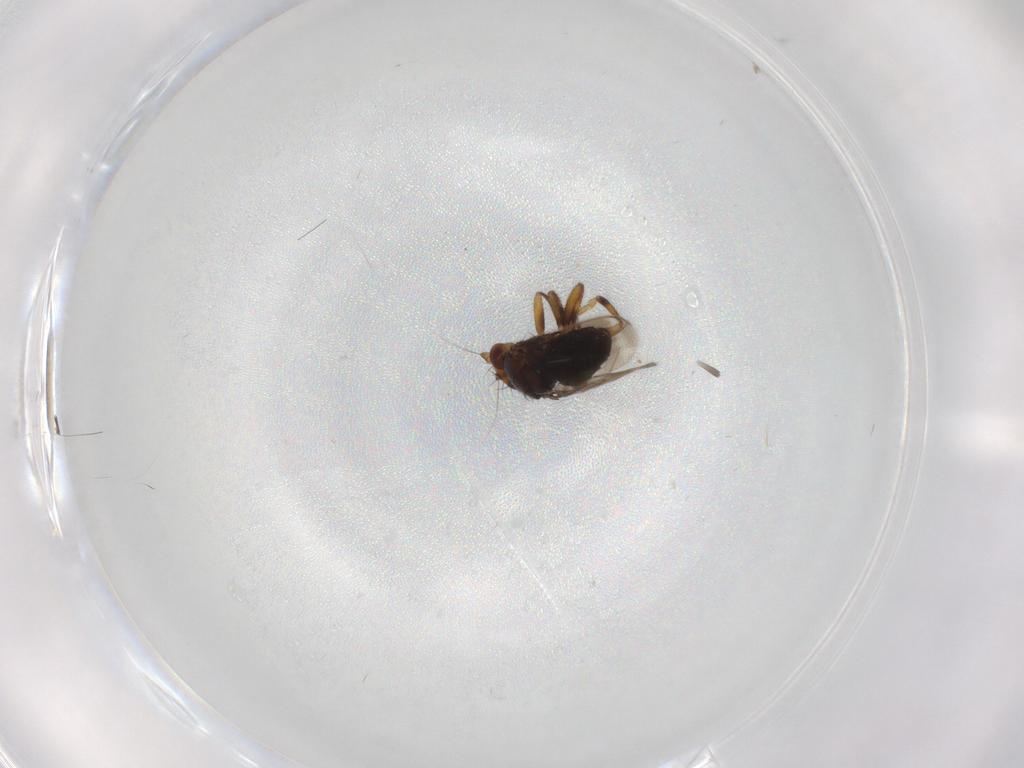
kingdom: Animalia
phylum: Arthropoda
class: Insecta
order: Diptera
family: Sphaeroceridae
